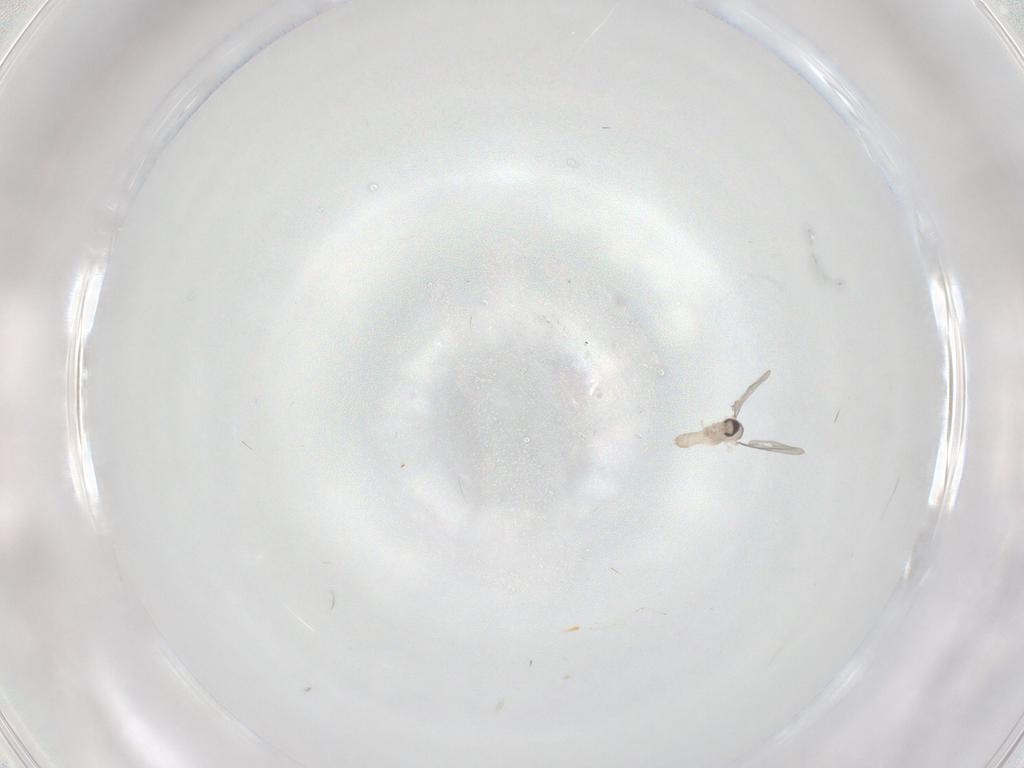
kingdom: Animalia
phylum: Arthropoda
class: Insecta
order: Diptera
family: Cecidomyiidae
